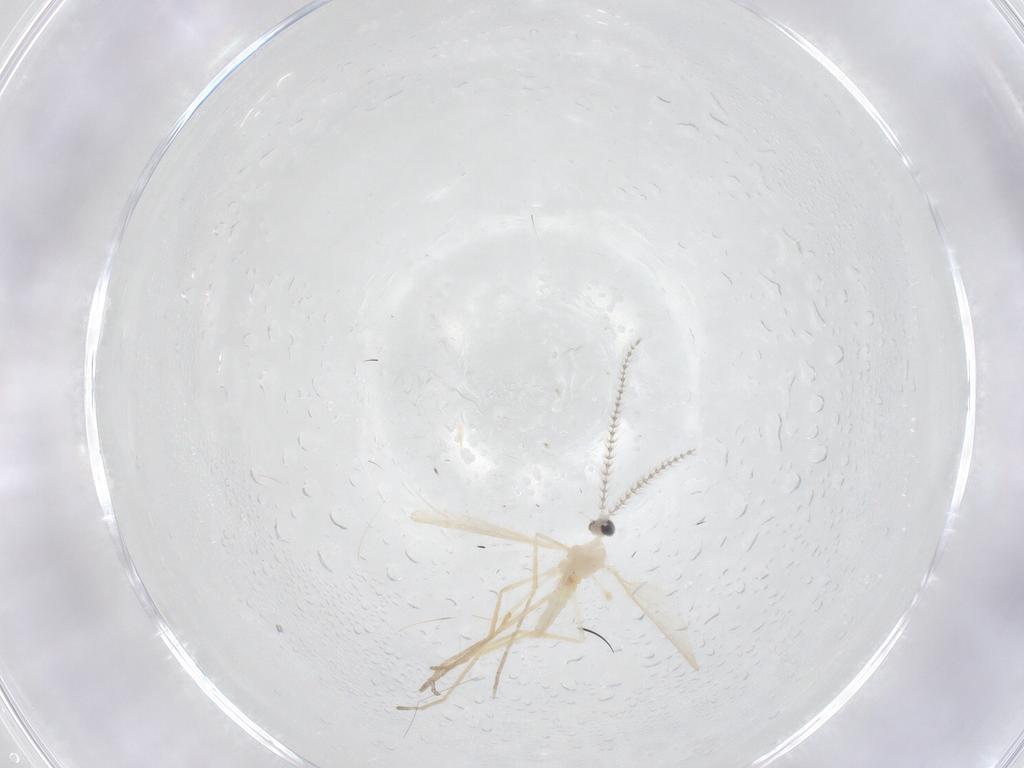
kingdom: Animalia
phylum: Arthropoda
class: Insecta
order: Diptera
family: Cecidomyiidae
